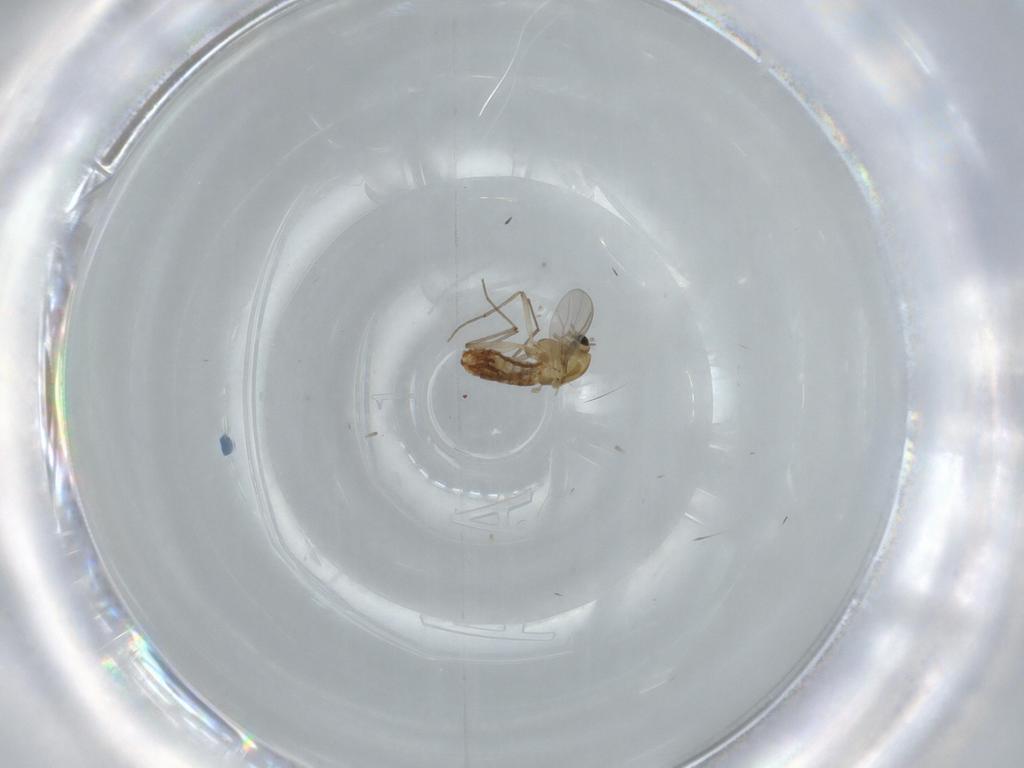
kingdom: Animalia
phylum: Arthropoda
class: Insecta
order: Diptera
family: Chironomidae
